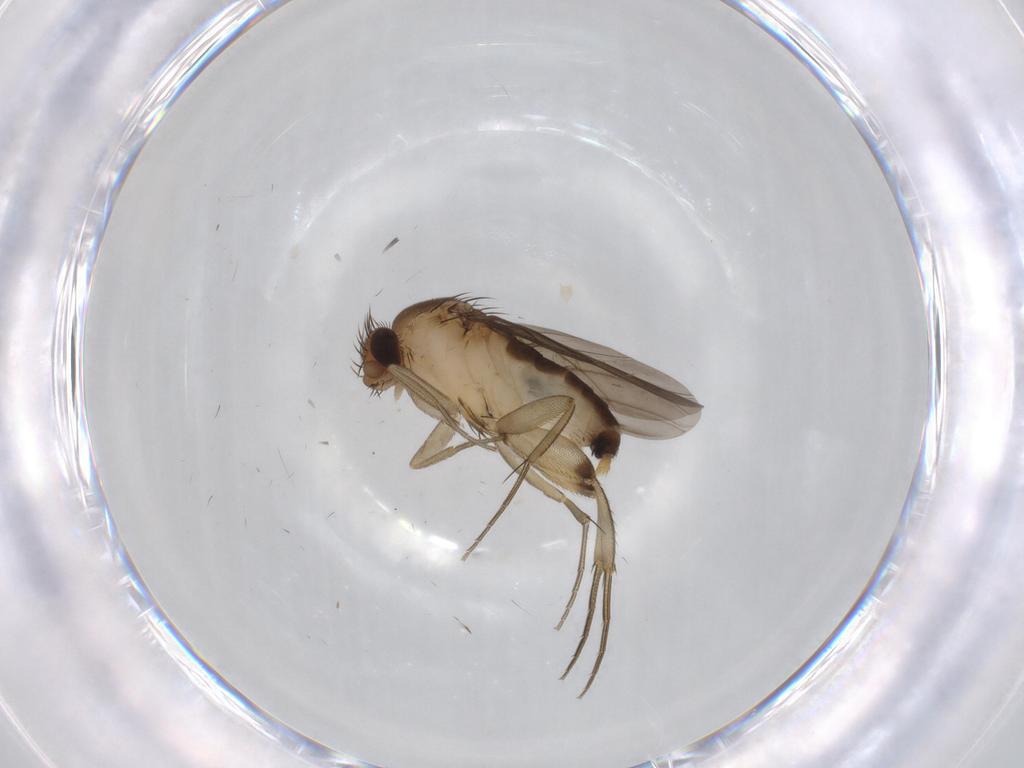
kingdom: Animalia
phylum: Arthropoda
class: Insecta
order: Diptera
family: Phoridae
